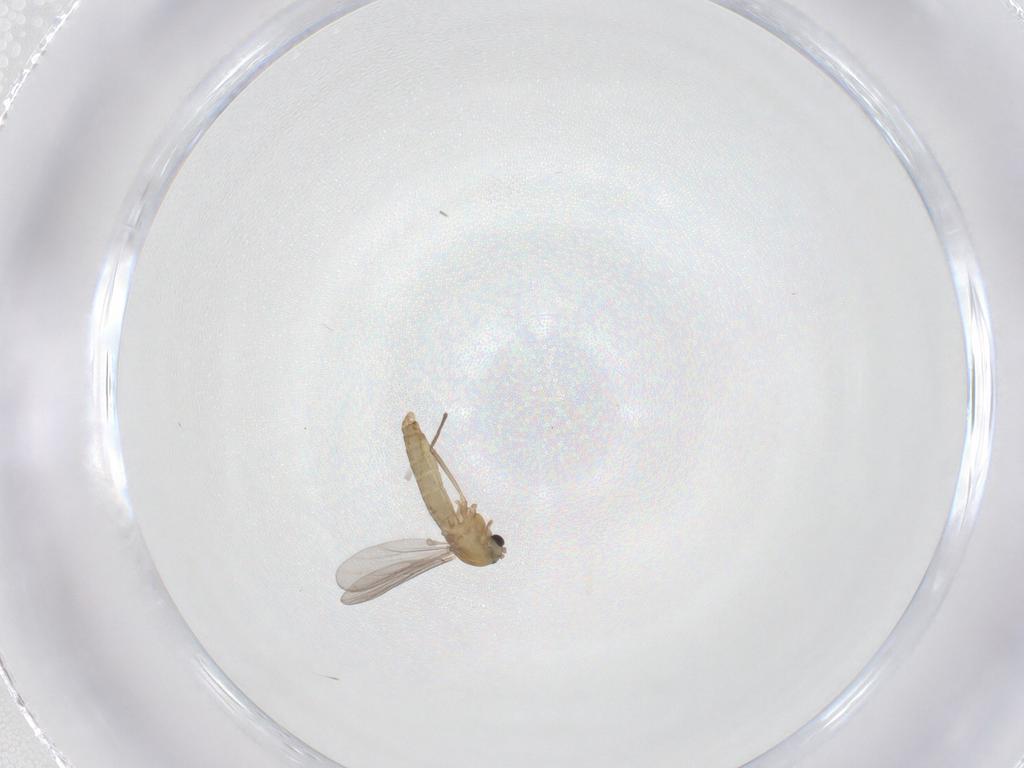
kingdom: Animalia
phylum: Arthropoda
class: Insecta
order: Diptera
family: Chironomidae
